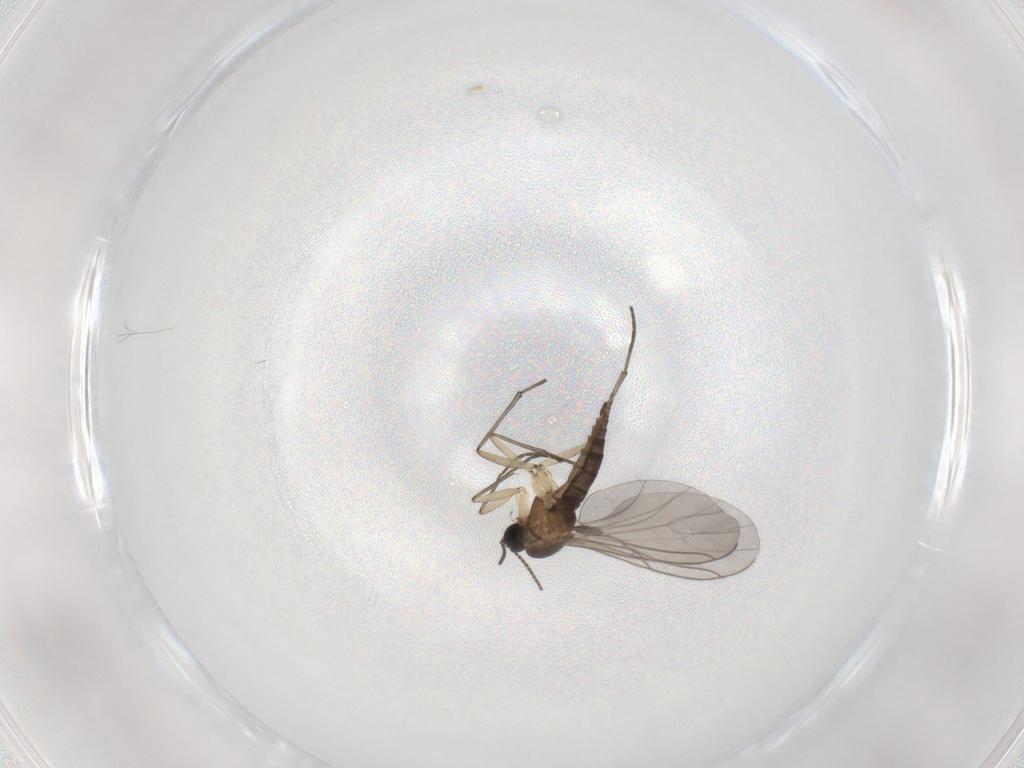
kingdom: Animalia
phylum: Arthropoda
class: Insecta
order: Diptera
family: Sciaridae
